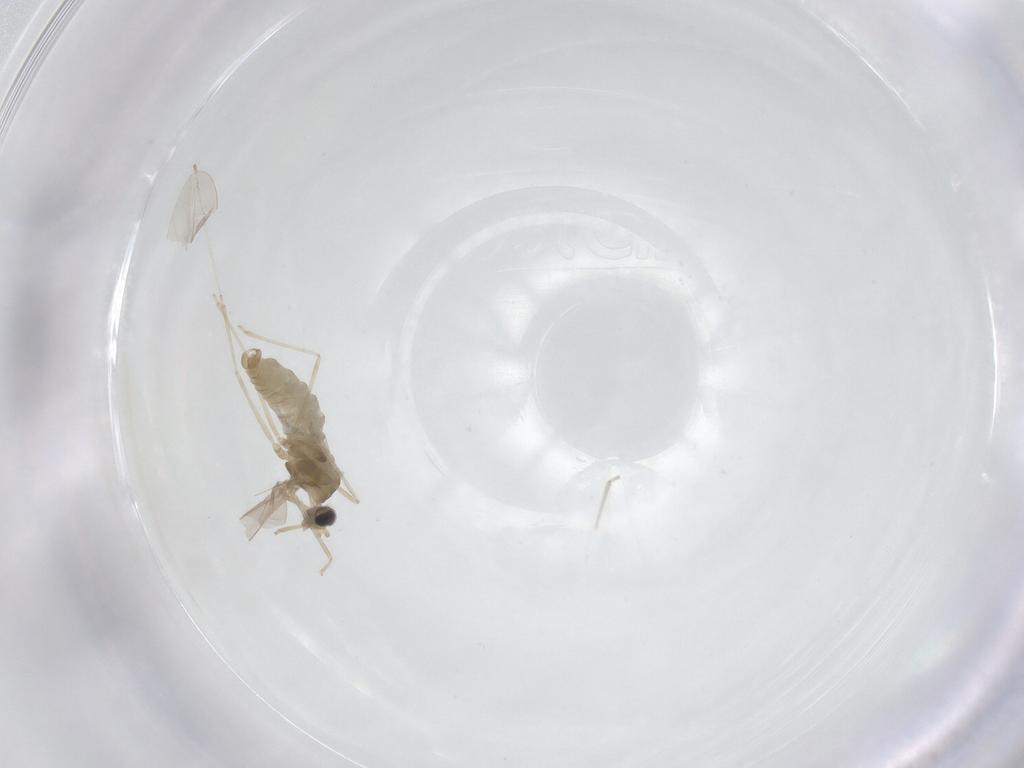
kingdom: Animalia
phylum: Arthropoda
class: Insecta
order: Diptera
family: Cecidomyiidae
